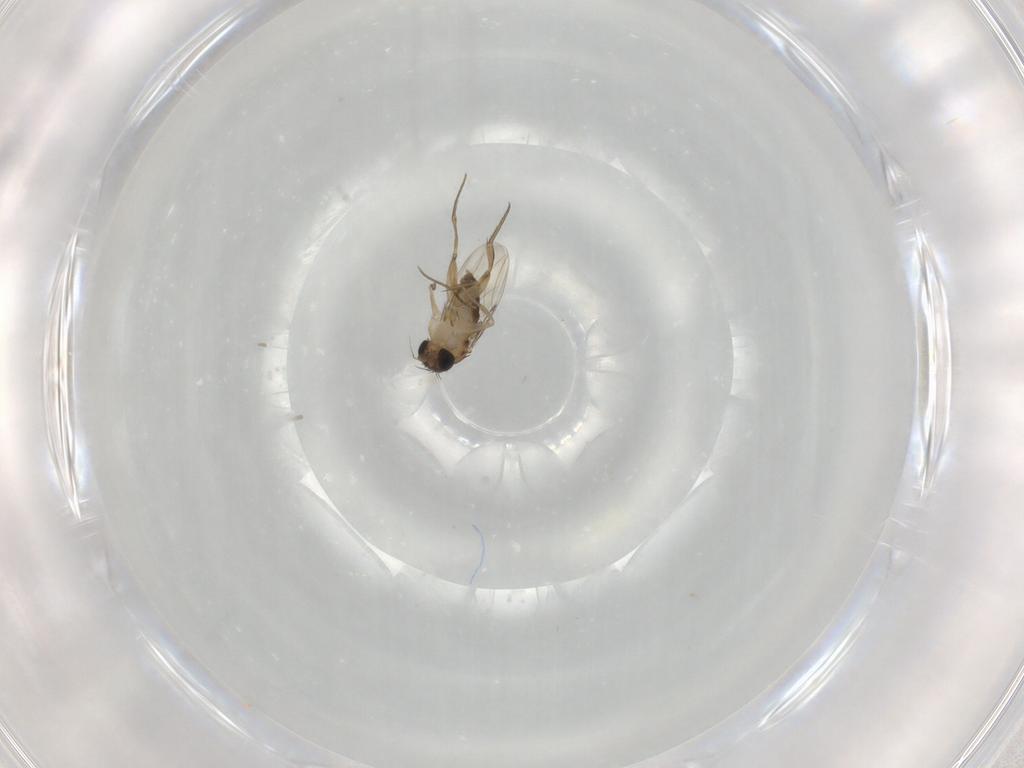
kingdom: Animalia
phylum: Arthropoda
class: Insecta
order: Diptera
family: Phoridae
